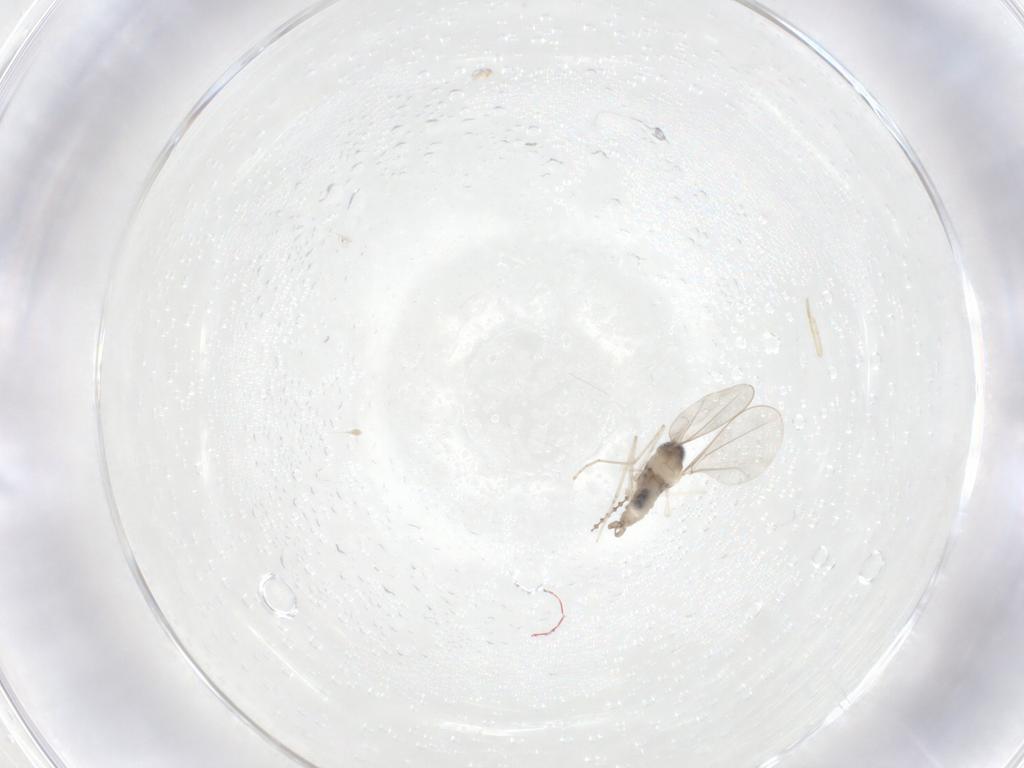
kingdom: Animalia
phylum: Arthropoda
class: Insecta
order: Diptera
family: Cecidomyiidae
